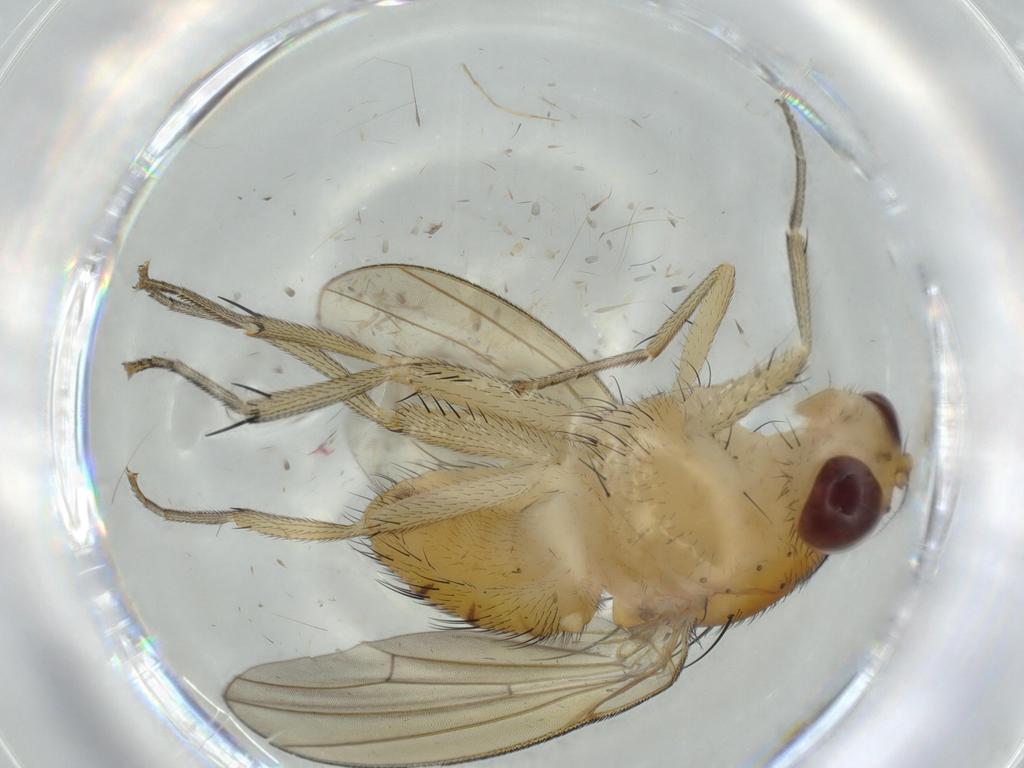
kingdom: Animalia
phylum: Arthropoda
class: Insecta
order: Diptera
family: Cecidomyiidae
